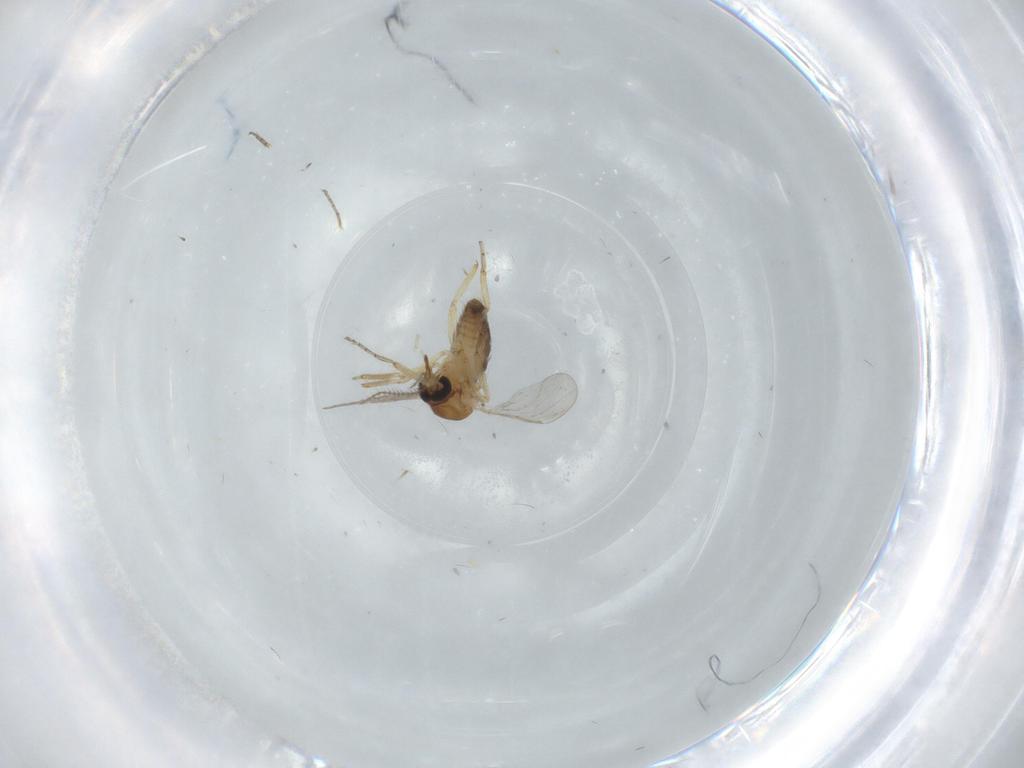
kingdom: Animalia
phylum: Arthropoda
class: Insecta
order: Diptera
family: Ceratopogonidae
